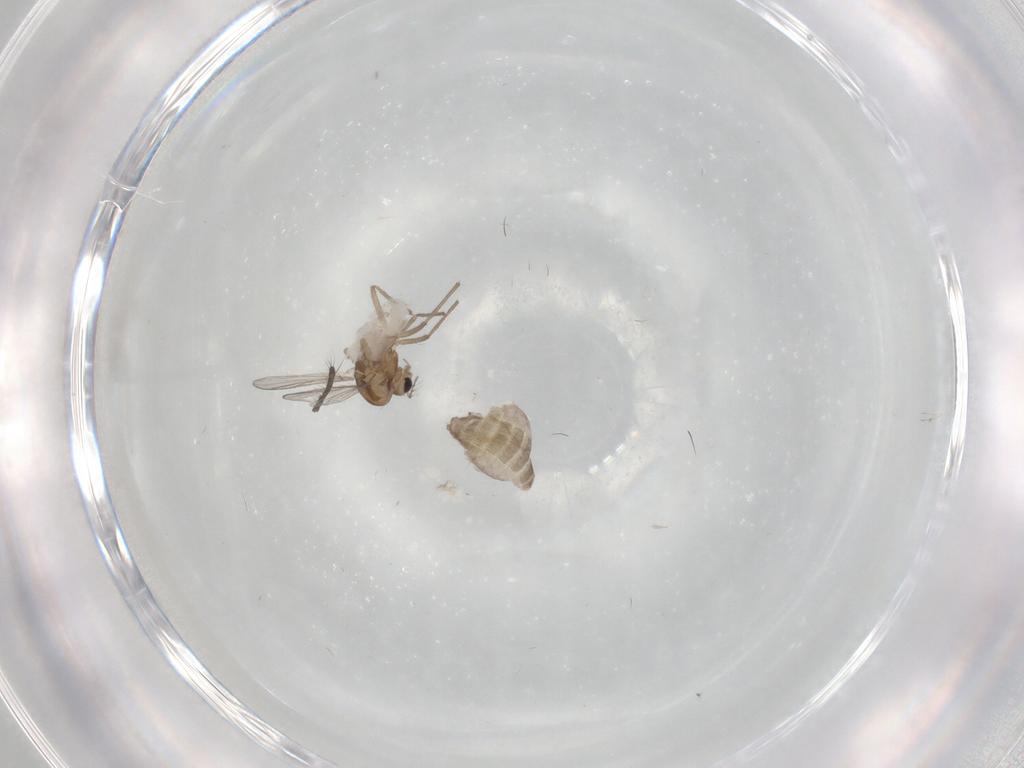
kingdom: Animalia
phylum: Arthropoda
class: Insecta
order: Diptera
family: Chironomidae
